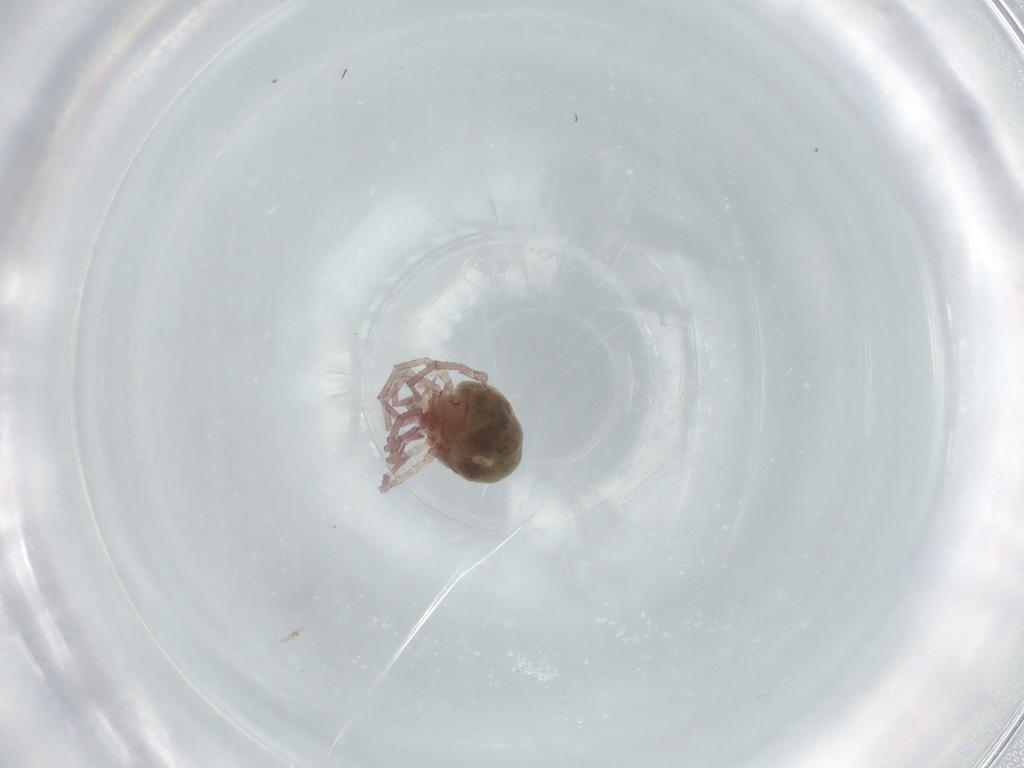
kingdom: Animalia
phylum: Arthropoda
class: Arachnida
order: Trombidiformes
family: Pionidae
